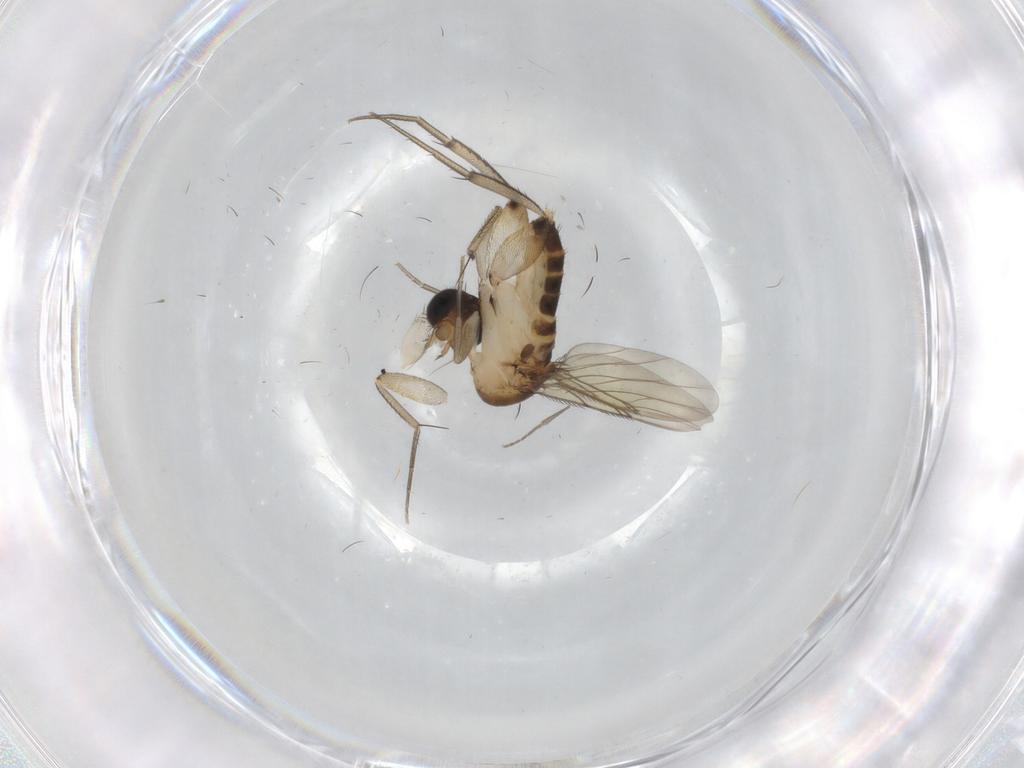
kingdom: Animalia
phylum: Arthropoda
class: Insecta
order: Diptera
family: Phoridae
